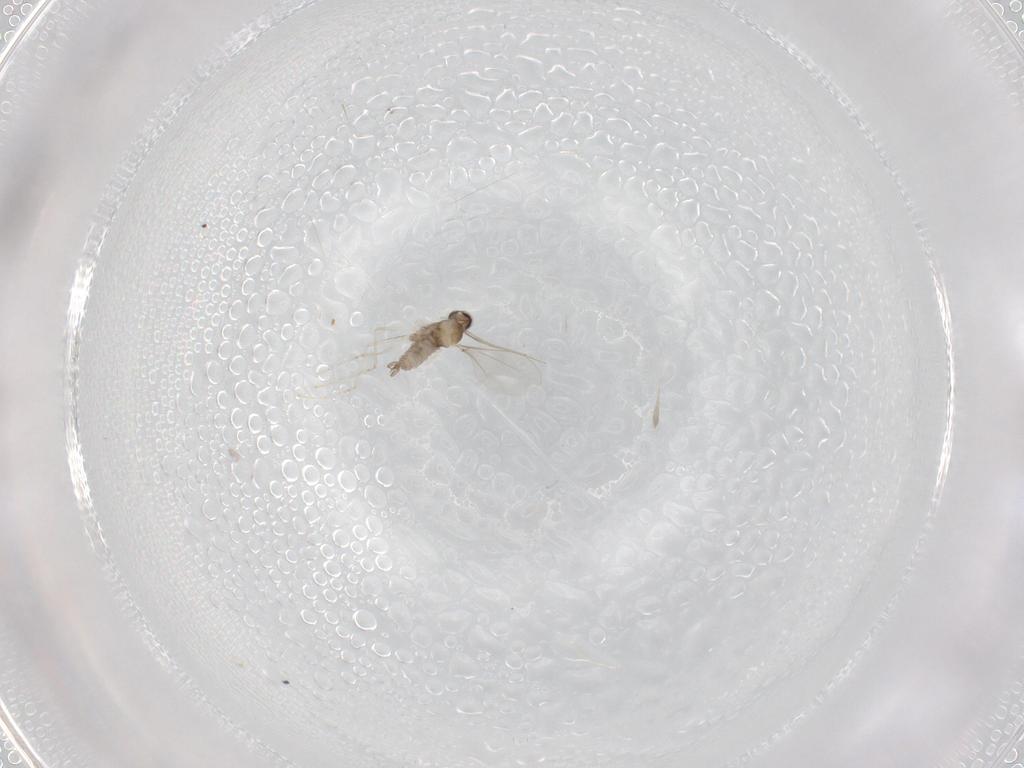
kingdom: Animalia
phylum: Arthropoda
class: Insecta
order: Diptera
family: Cecidomyiidae
